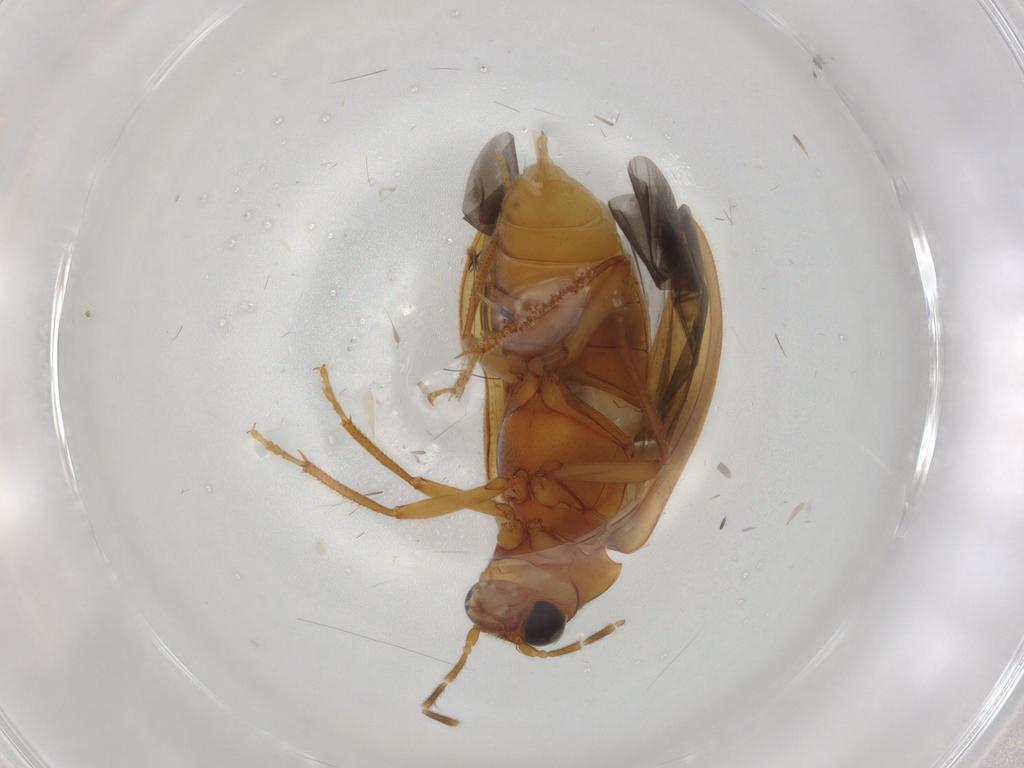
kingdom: Animalia
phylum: Arthropoda
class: Insecta
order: Coleoptera
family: Ptilodactylidae
